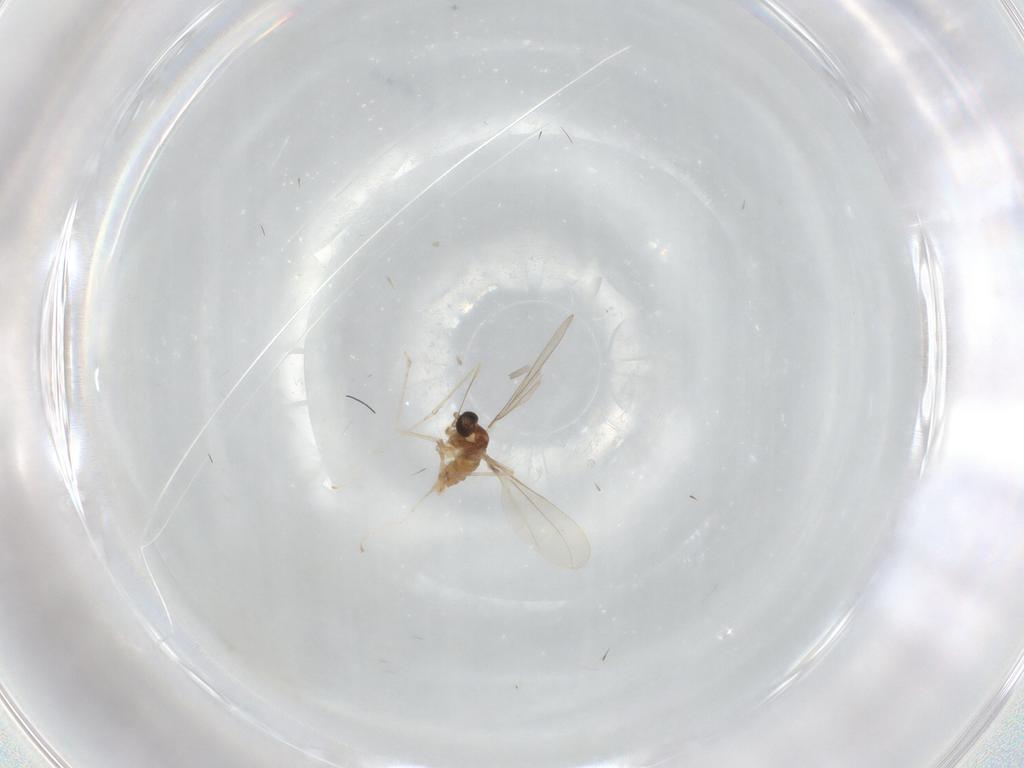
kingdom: Animalia
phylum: Arthropoda
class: Insecta
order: Diptera
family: Cecidomyiidae
